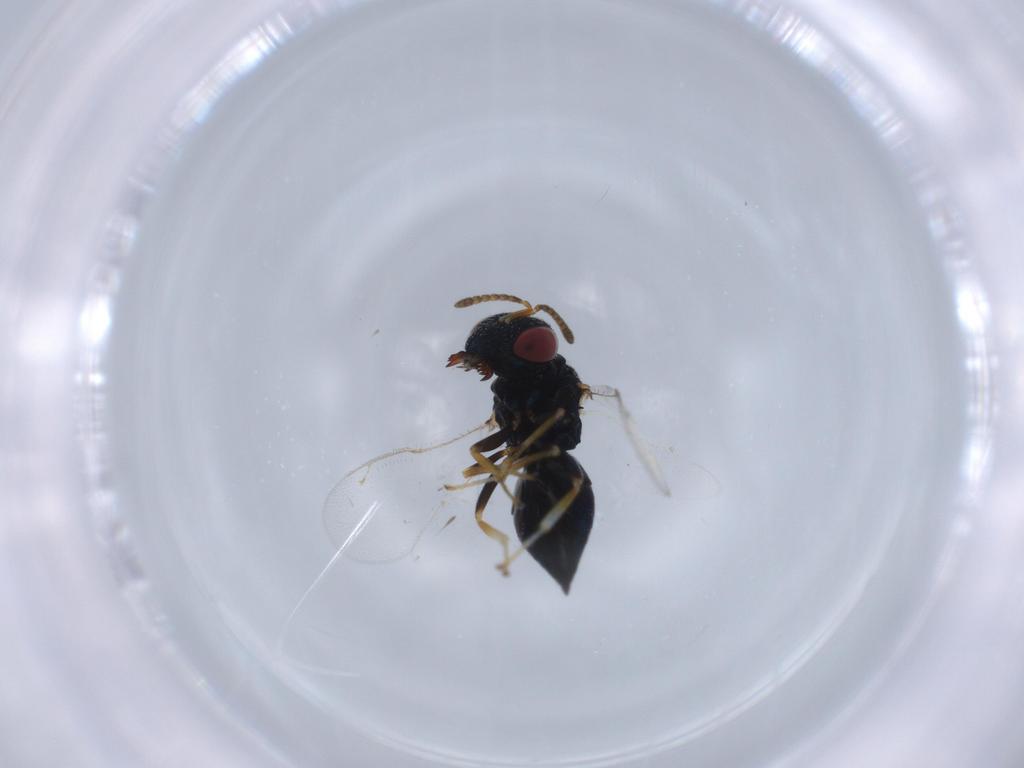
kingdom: Animalia
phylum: Arthropoda
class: Insecta
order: Hymenoptera
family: Pteromalidae
